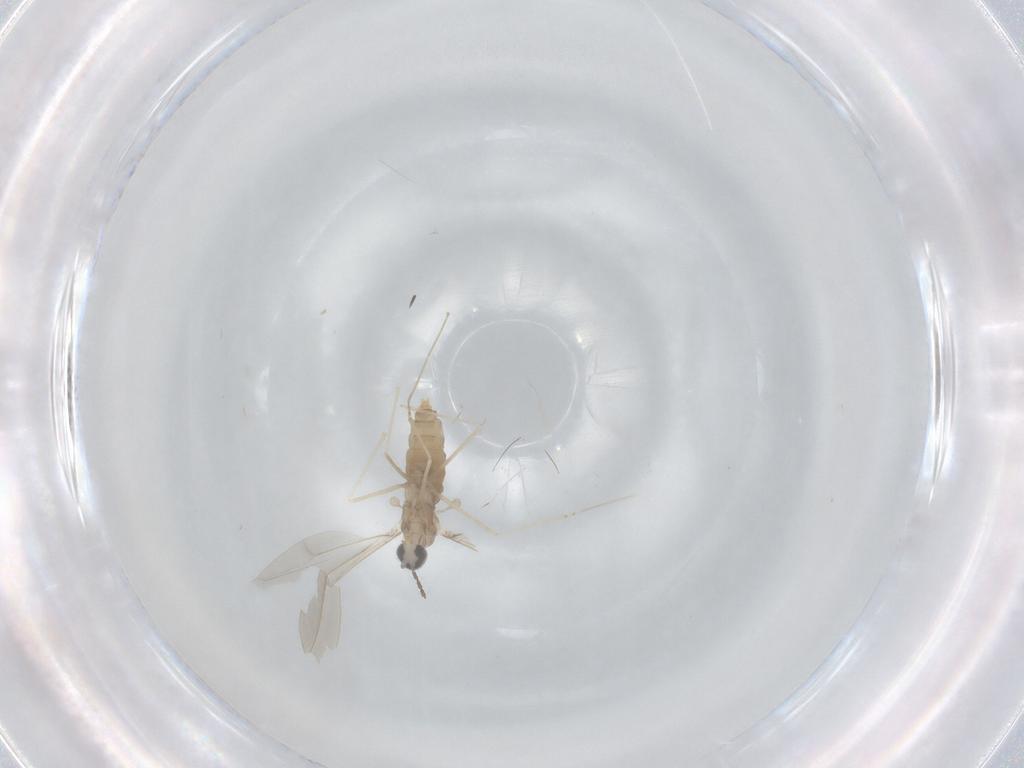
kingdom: Animalia
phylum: Arthropoda
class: Insecta
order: Diptera
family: Cecidomyiidae
